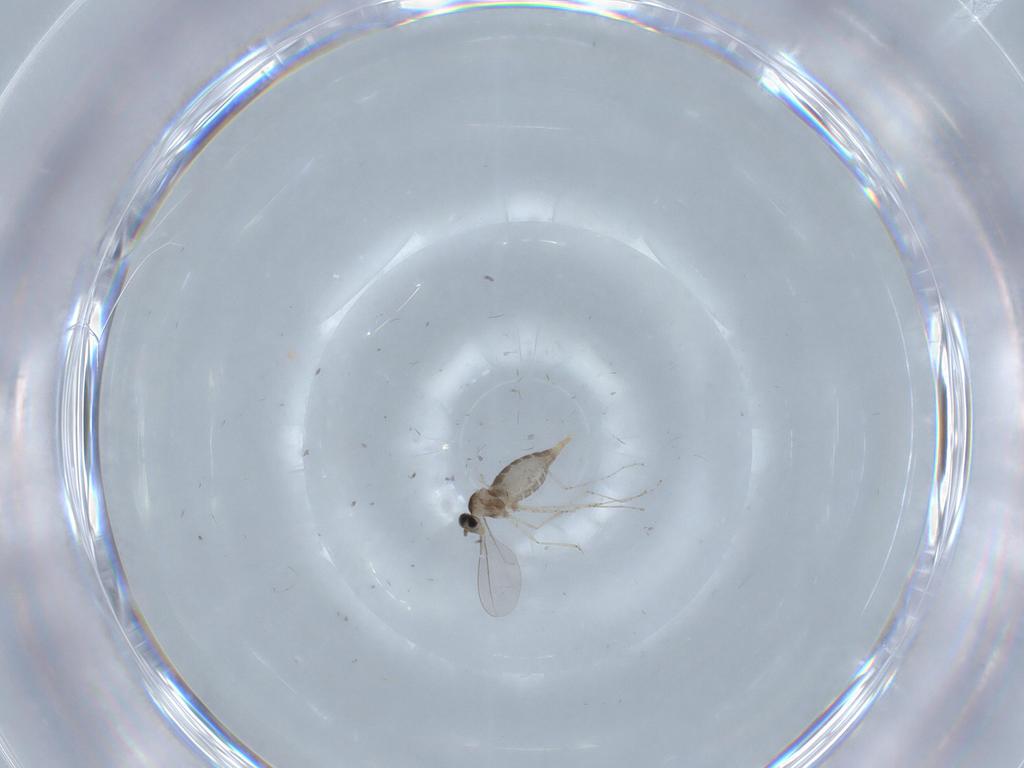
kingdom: Animalia
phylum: Arthropoda
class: Insecta
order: Diptera
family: Cecidomyiidae
